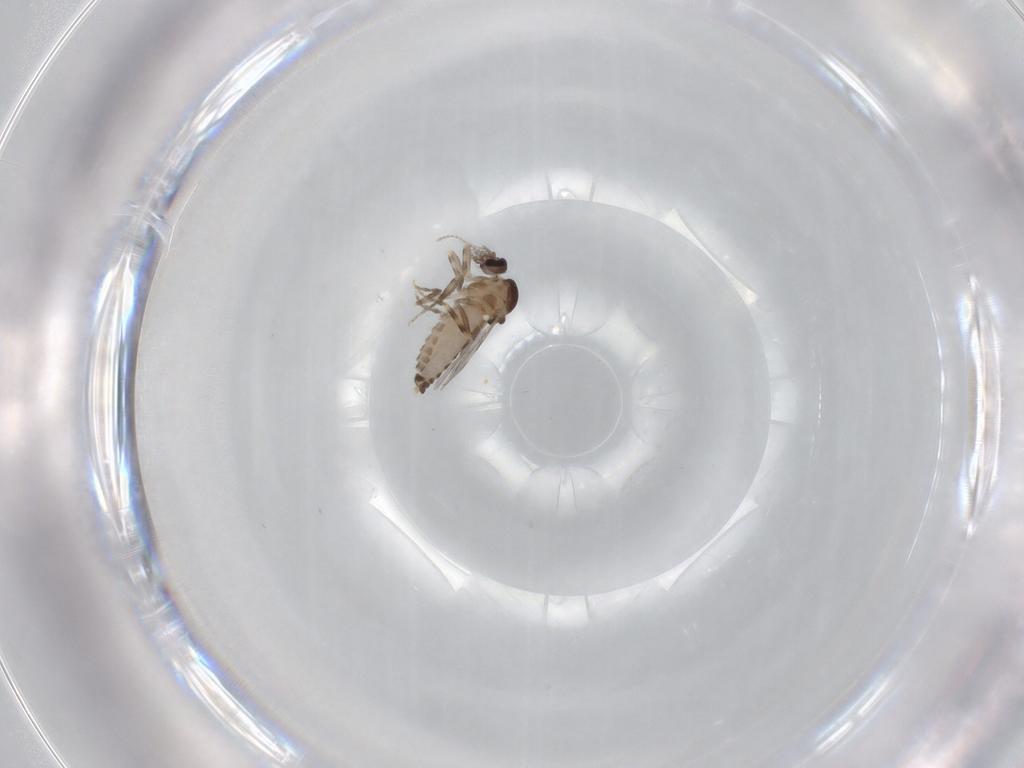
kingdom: Animalia
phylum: Arthropoda
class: Insecta
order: Diptera
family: Ceratopogonidae
